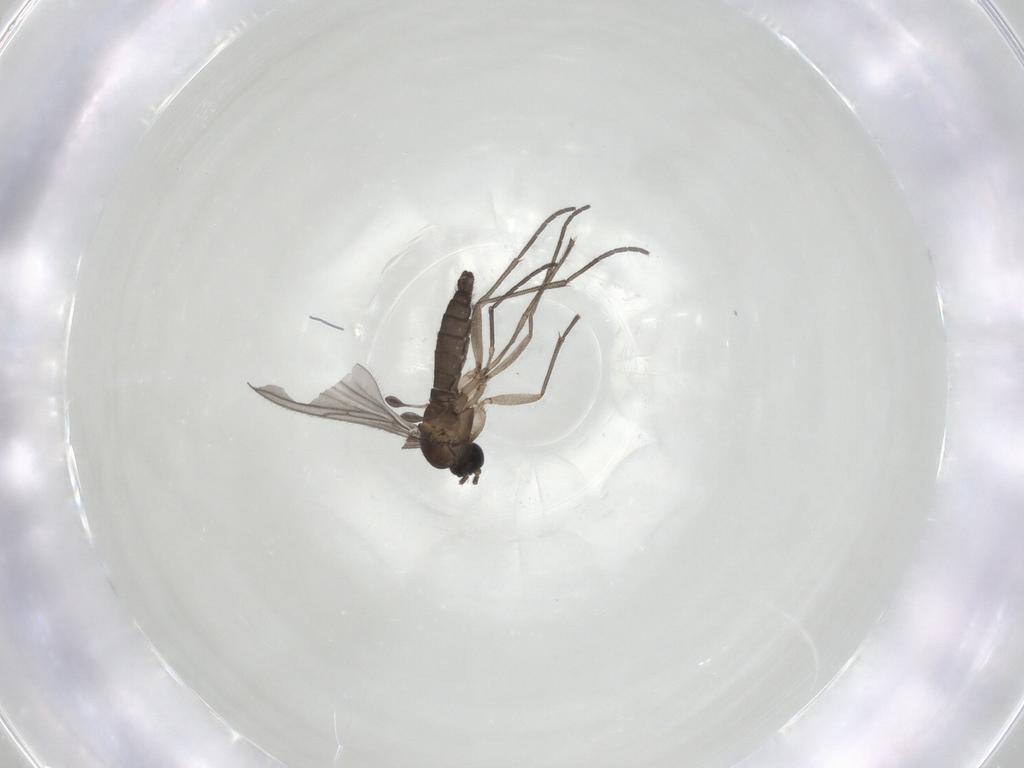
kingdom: Animalia
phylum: Arthropoda
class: Insecta
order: Diptera
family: Sciaridae
